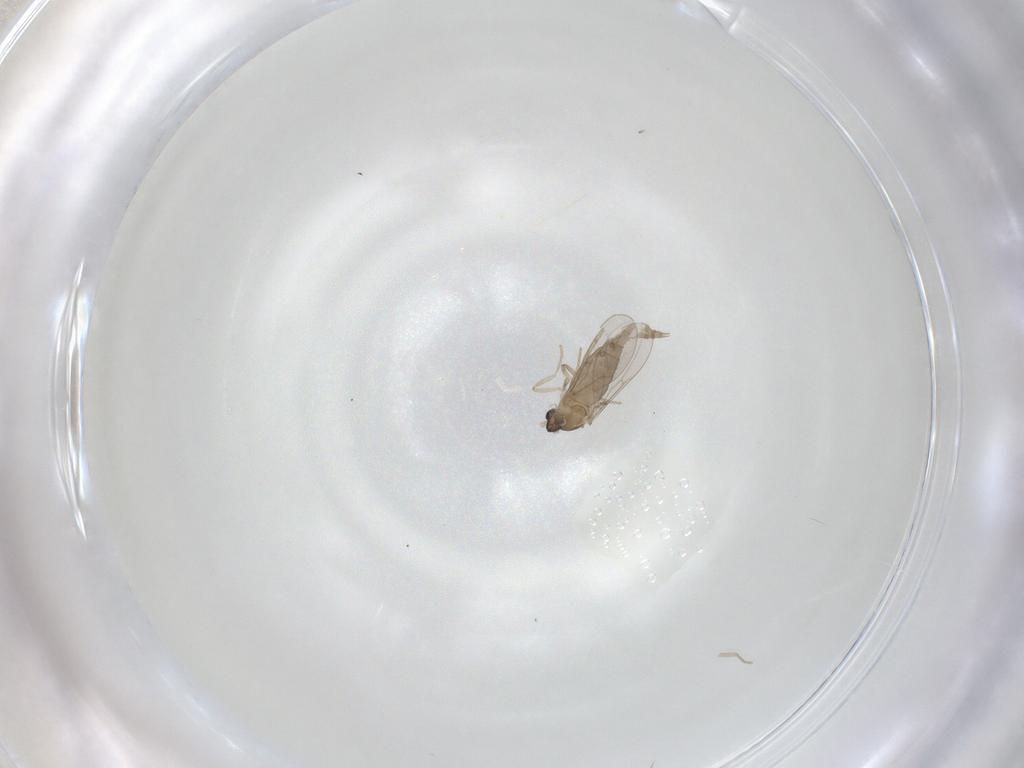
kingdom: Animalia
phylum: Arthropoda
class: Insecta
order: Diptera
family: Cecidomyiidae
